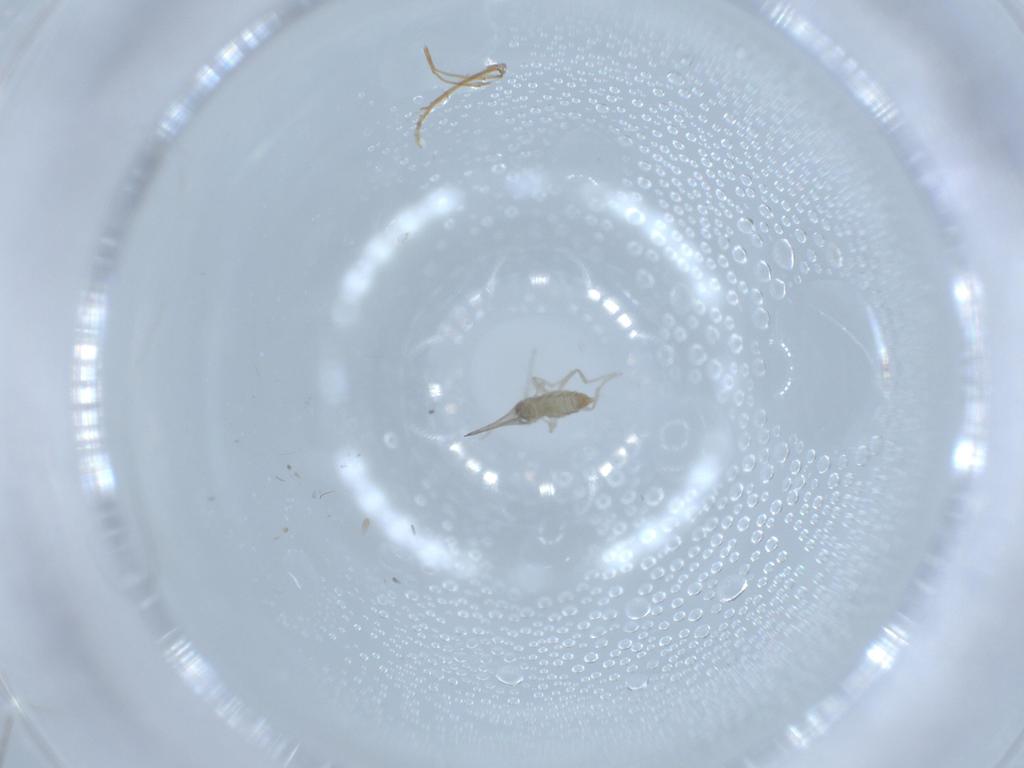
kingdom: Animalia
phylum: Arthropoda
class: Insecta
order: Diptera
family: Cecidomyiidae
